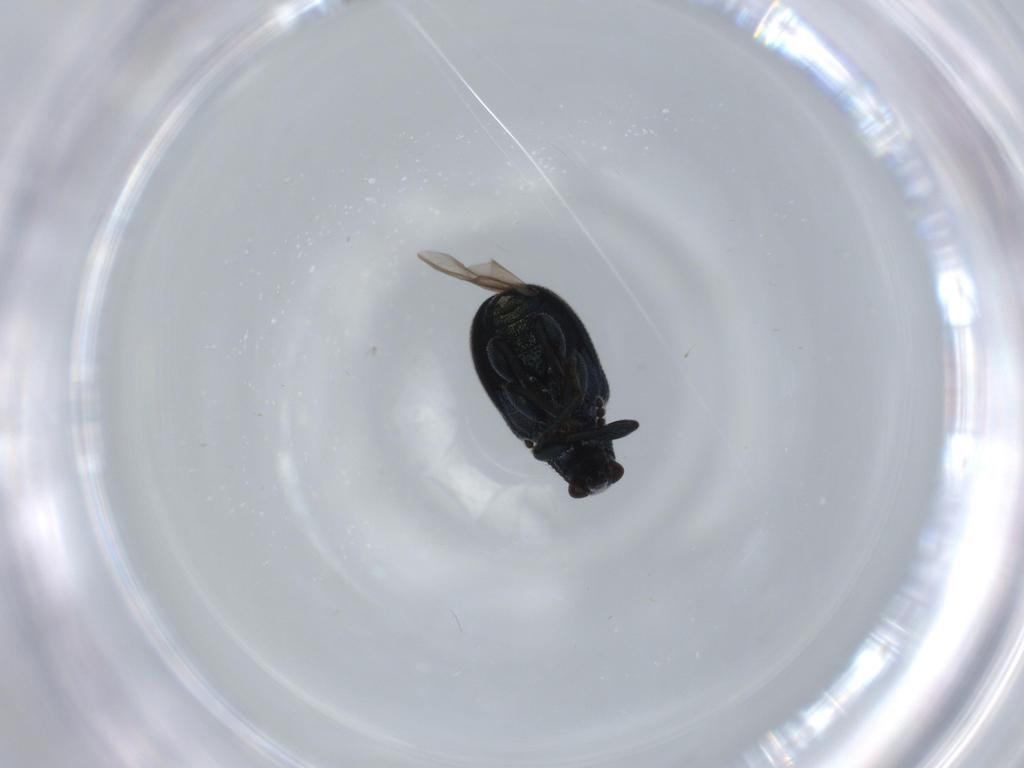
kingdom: Animalia
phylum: Arthropoda
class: Insecta
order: Coleoptera
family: Attelabidae
